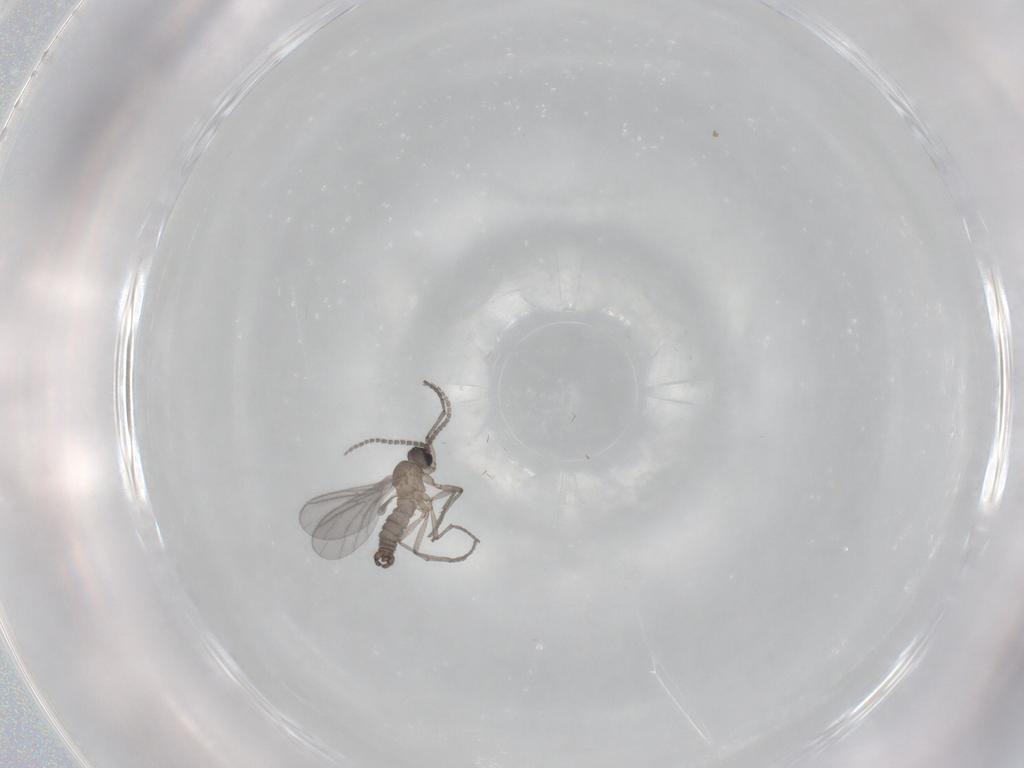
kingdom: Animalia
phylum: Arthropoda
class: Insecta
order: Diptera
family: Sciaridae
